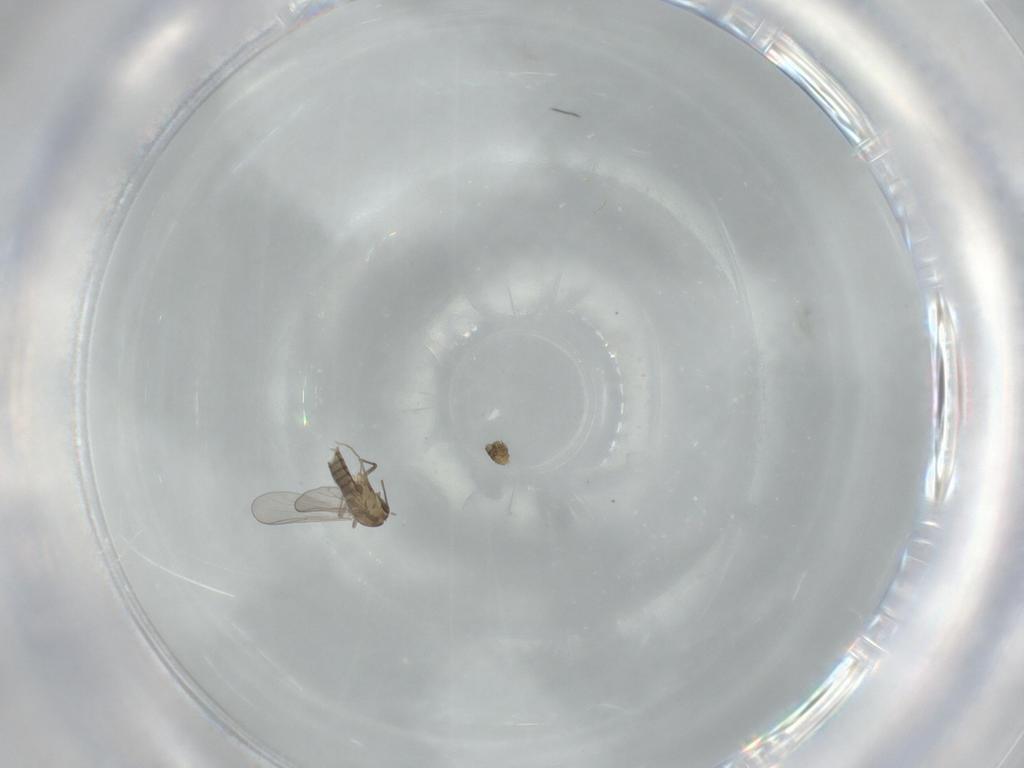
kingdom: Animalia
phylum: Arthropoda
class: Insecta
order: Diptera
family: Chironomidae
